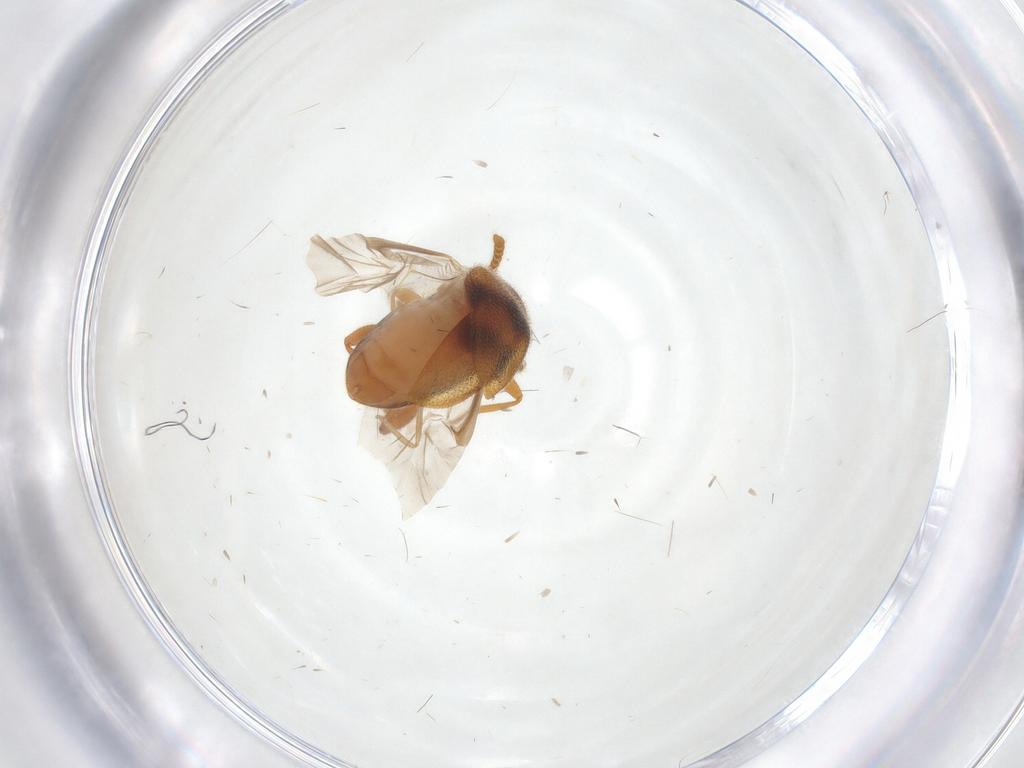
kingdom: Animalia
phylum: Arthropoda
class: Insecta
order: Coleoptera
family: Aderidae
